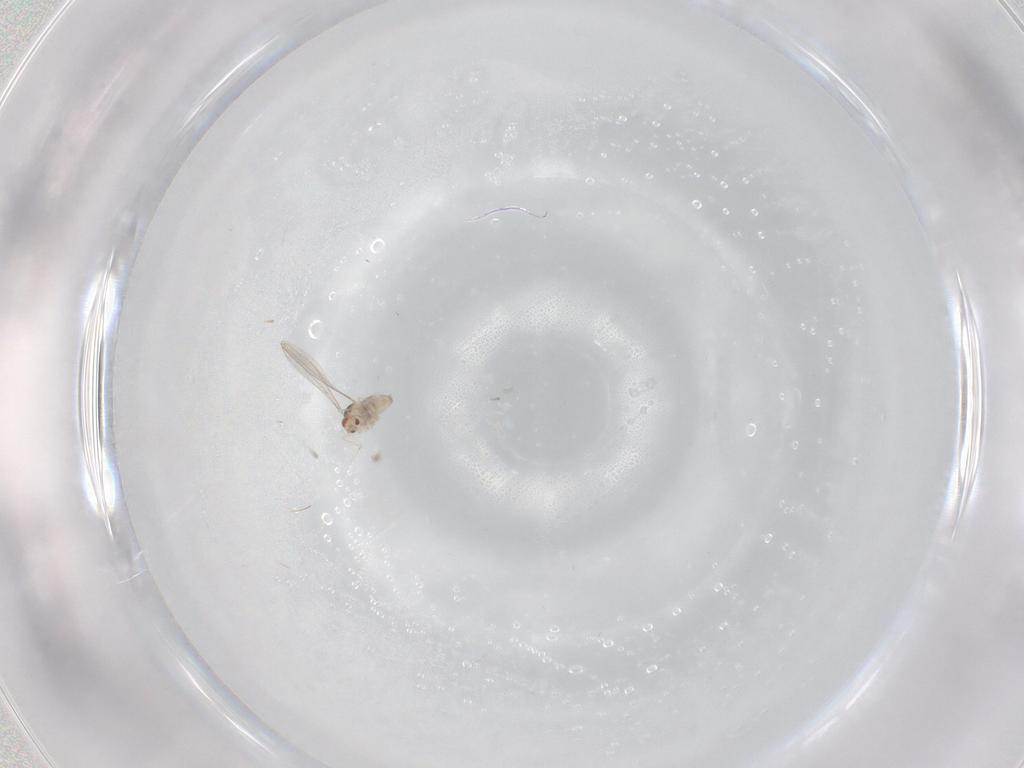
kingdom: Animalia
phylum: Arthropoda
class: Insecta
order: Diptera
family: Cecidomyiidae
